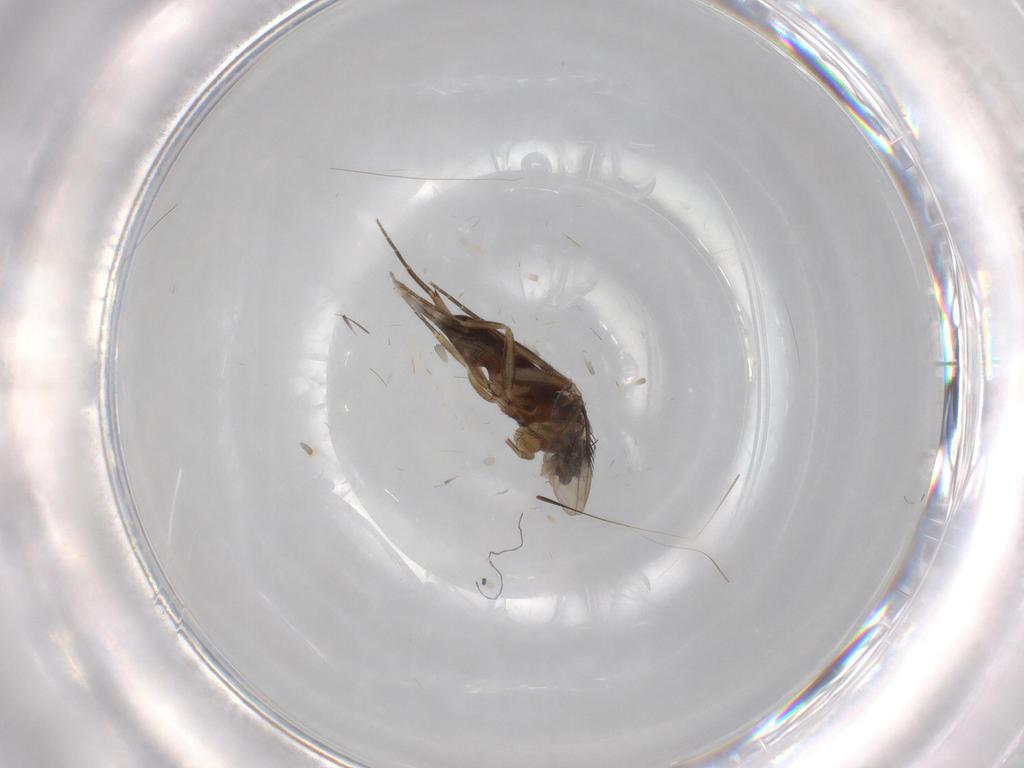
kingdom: Animalia
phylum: Arthropoda
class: Insecta
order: Diptera
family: Phoridae
